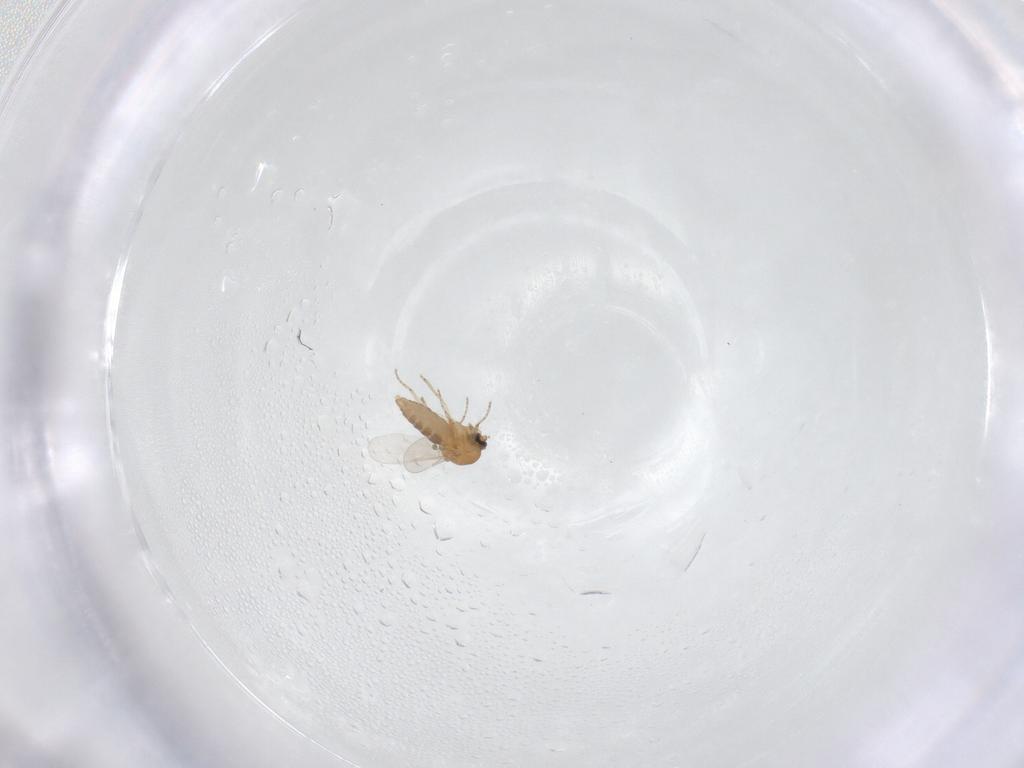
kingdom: Animalia
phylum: Arthropoda
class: Insecta
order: Diptera
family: Ceratopogonidae
